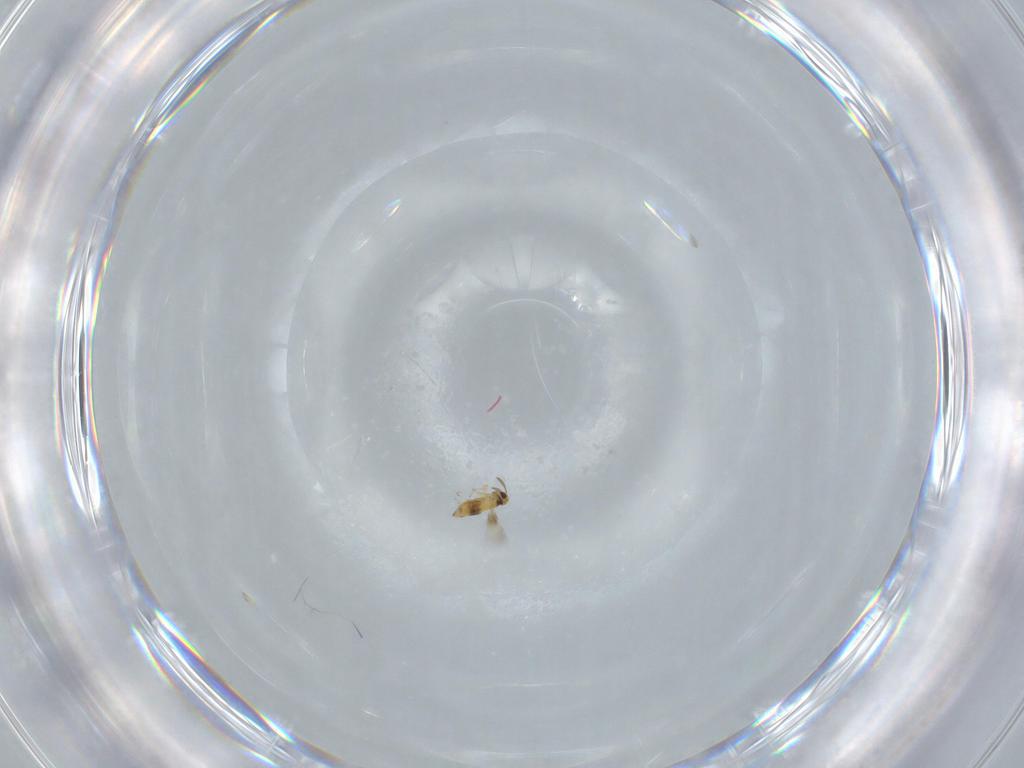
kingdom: Animalia
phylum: Arthropoda
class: Insecta
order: Hymenoptera
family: Signiphoridae
